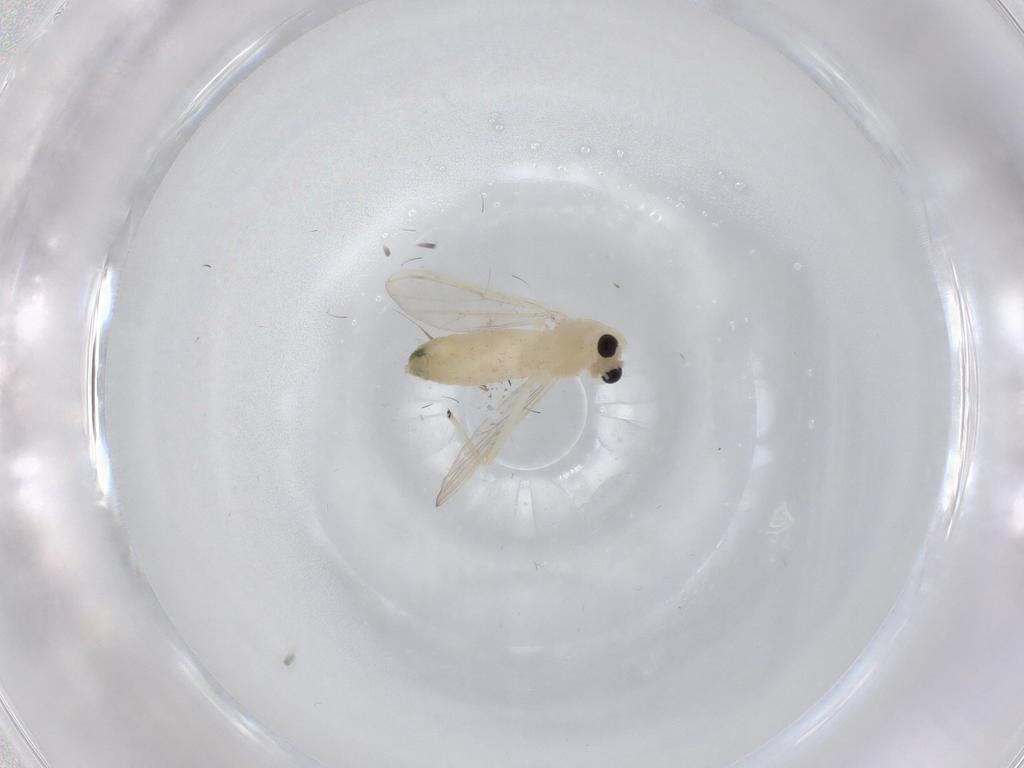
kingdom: Animalia
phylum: Arthropoda
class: Insecta
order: Diptera
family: Chironomidae
